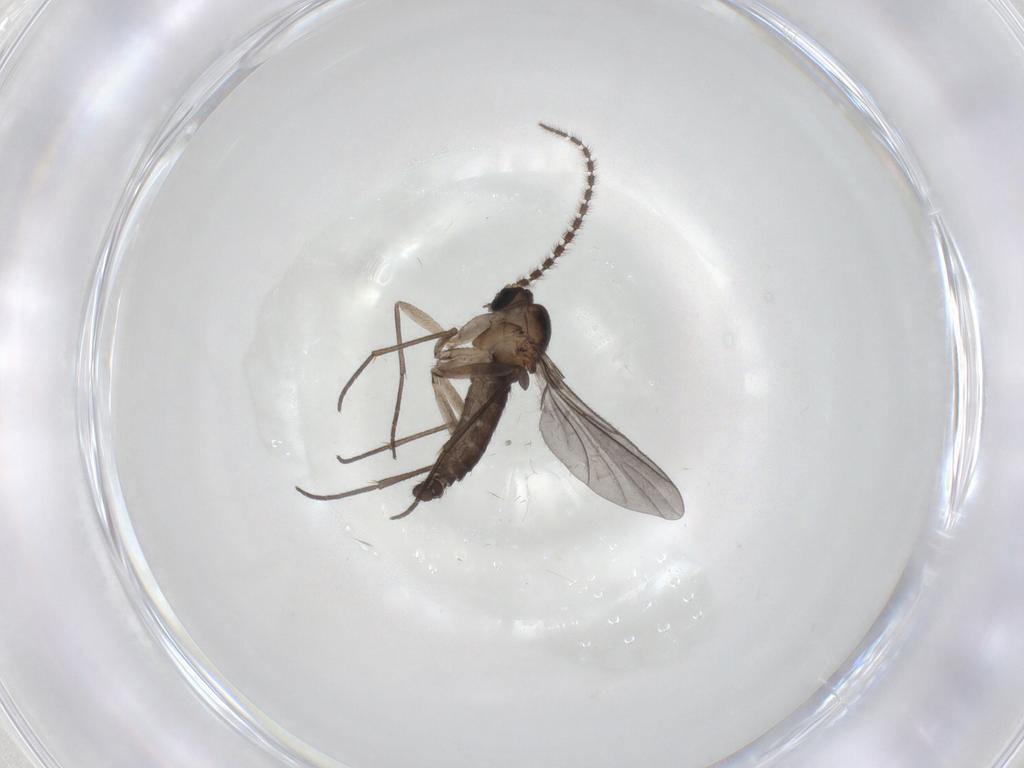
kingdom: Animalia
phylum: Arthropoda
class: Insecta
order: Diptera
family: Sciaridae
